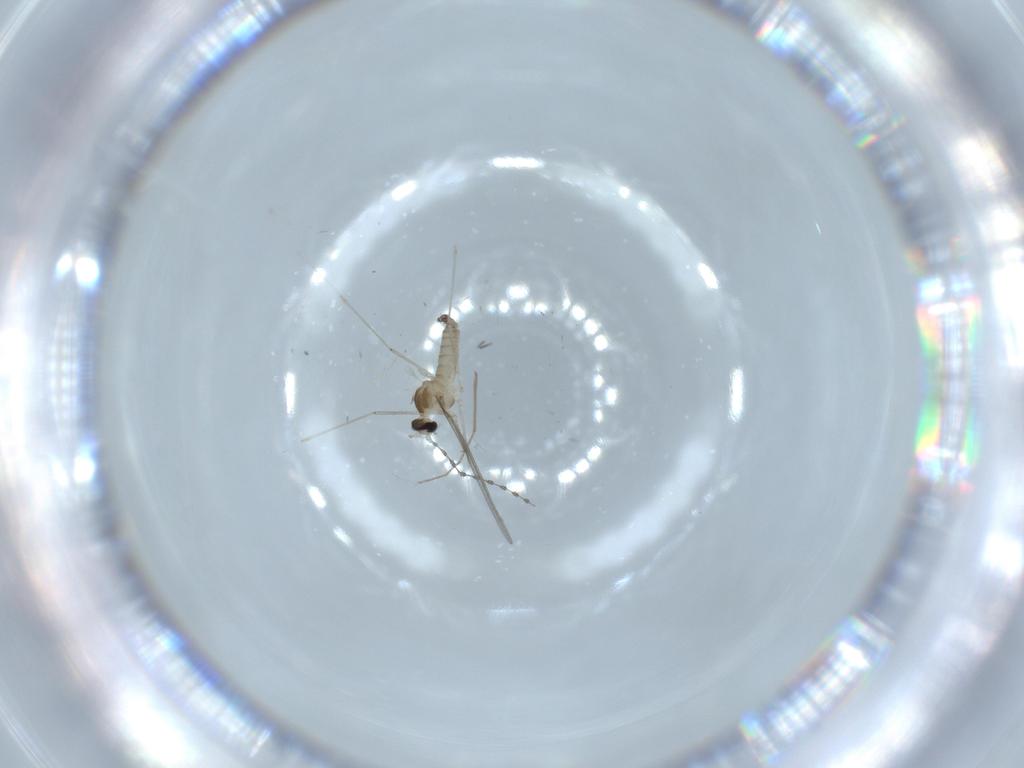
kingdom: Animalia
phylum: Arthropoda
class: Insecta
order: Diptera
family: Cecidomyiidae
